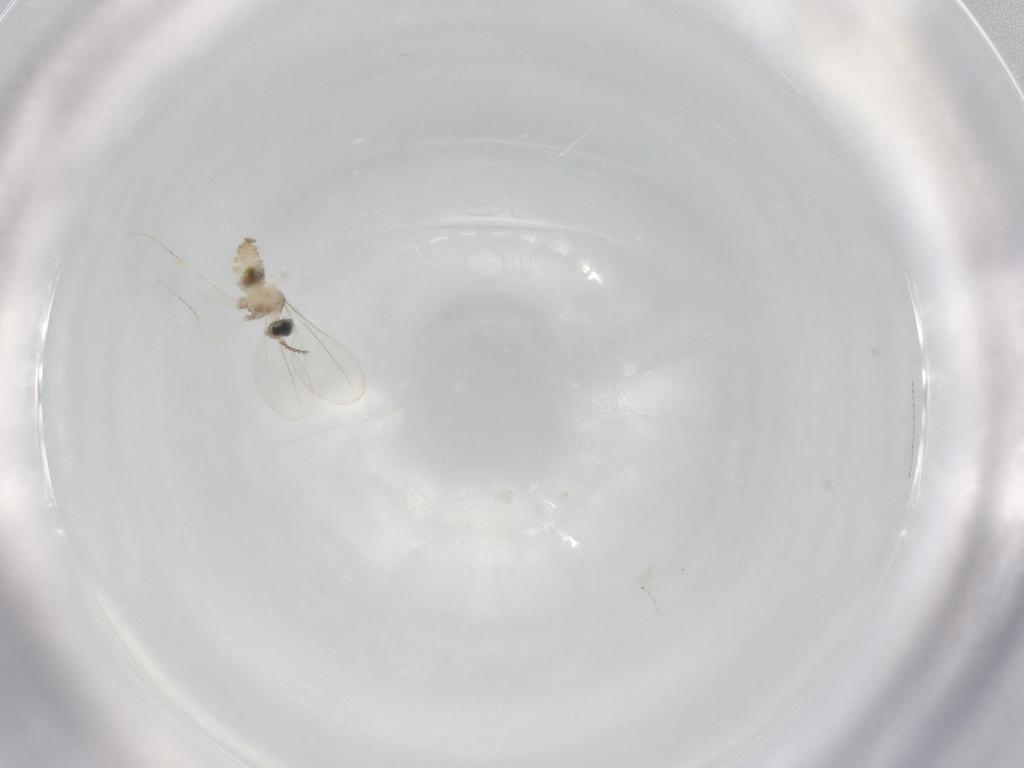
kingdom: Animalia
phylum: Arthropoda
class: Insecta
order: Diptera
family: Cecidomyiidae
